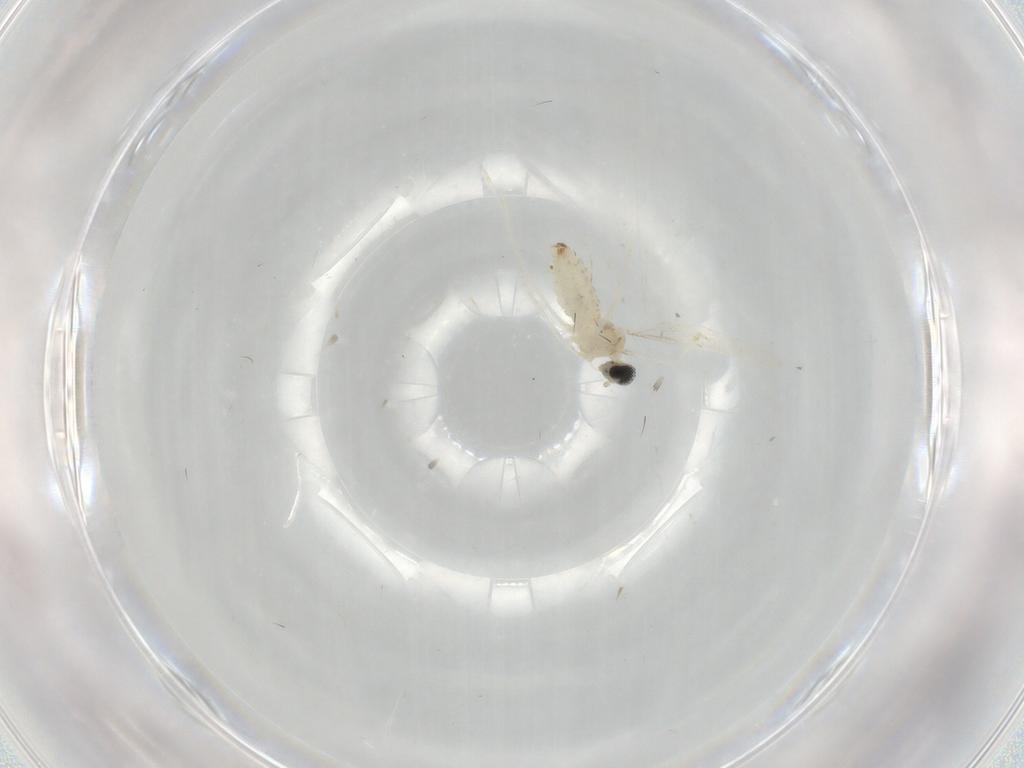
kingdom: Animalia
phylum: Arthropoda
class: Insecta
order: Diptera
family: Cecidomyiidae
